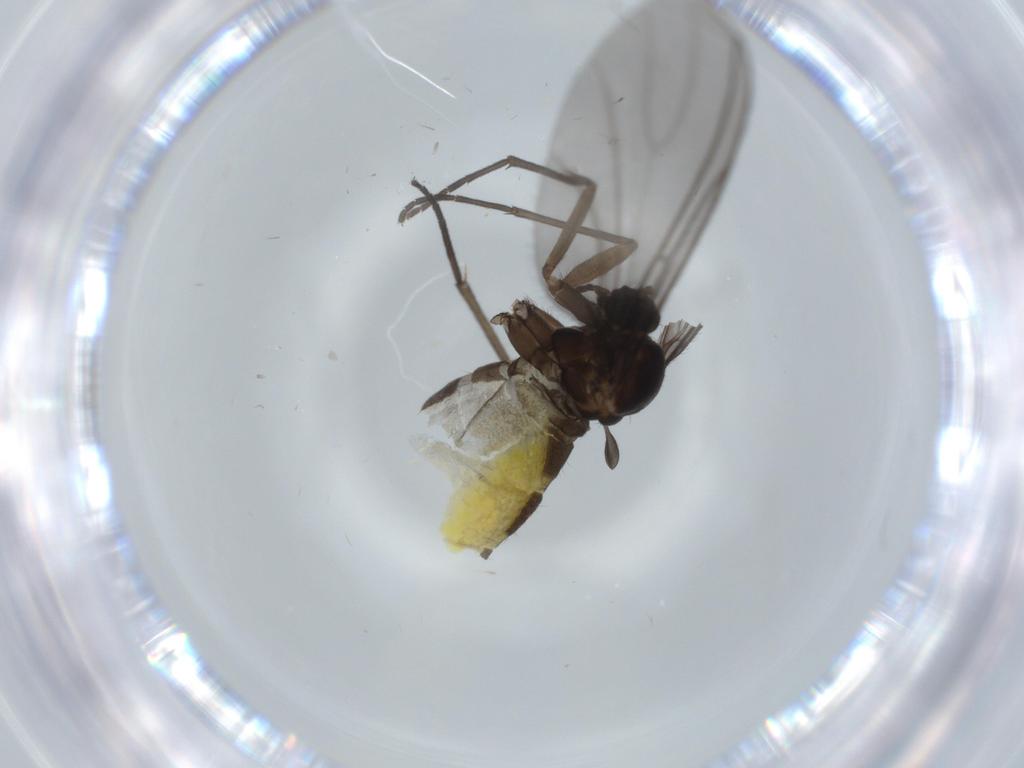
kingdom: Animalia
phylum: Arthropoda
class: Insecta
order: Diptera
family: Sciaridae
